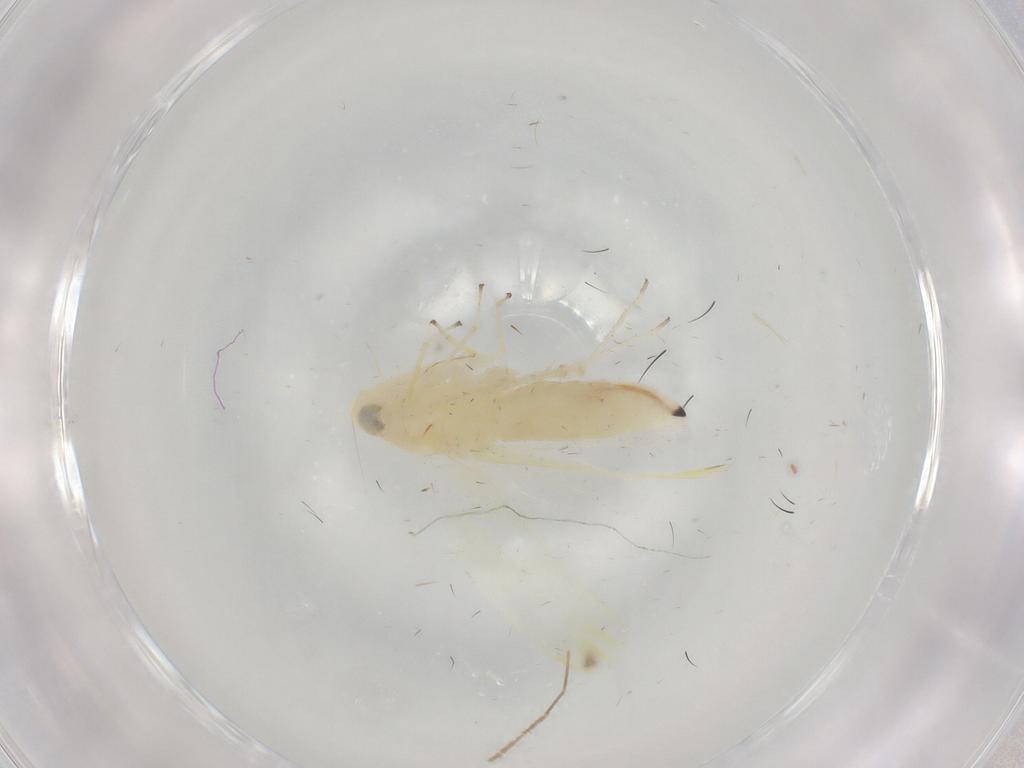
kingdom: Animalia
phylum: Arthropoda
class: Insecta
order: Hemiptera
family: Cicadellidae
